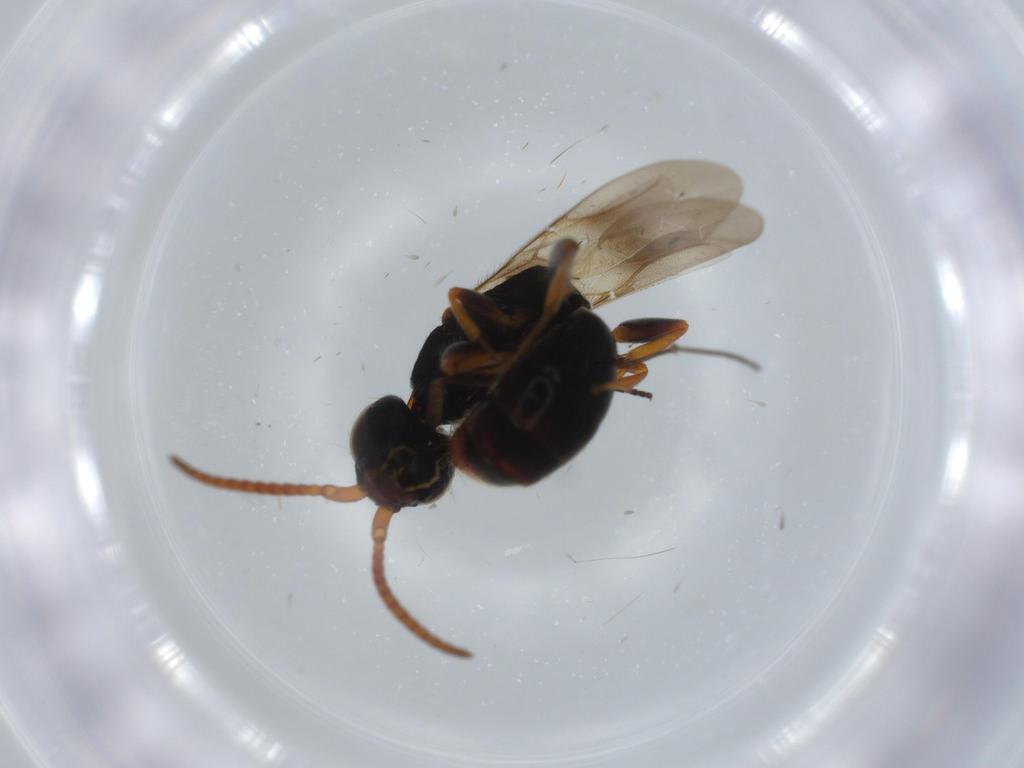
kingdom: Animalia
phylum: Arthropoda
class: Insecta
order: Hymenoptera
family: Bethylidae
